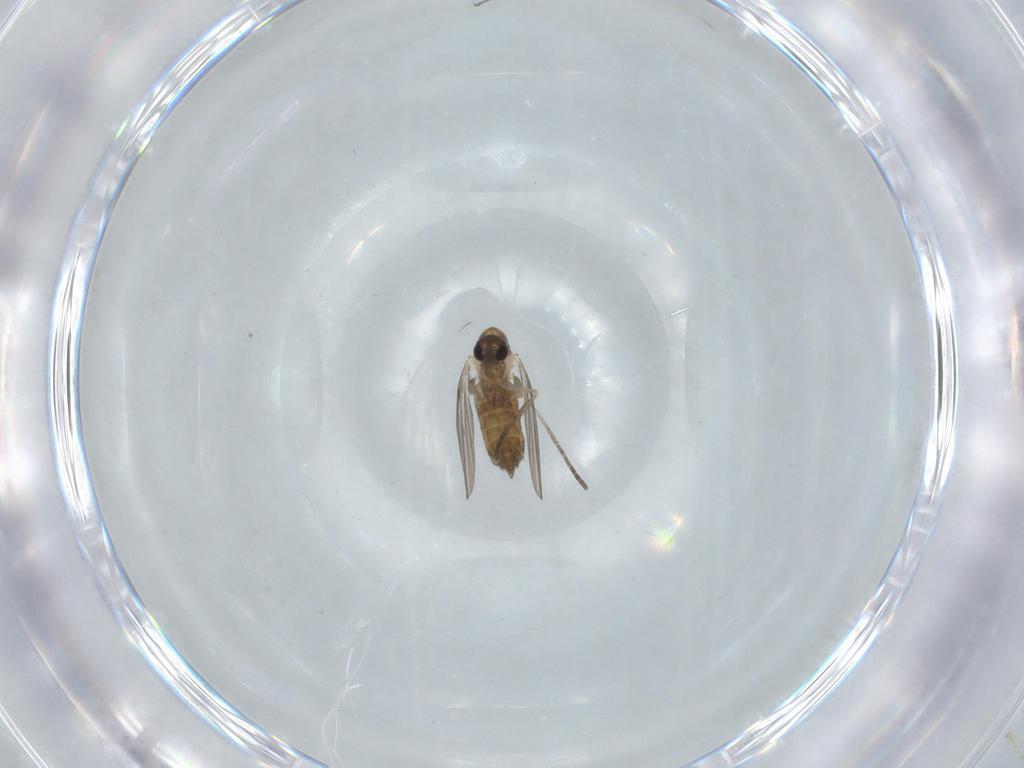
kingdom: Animalia
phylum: Arthropoda
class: Insecta
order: Diptera
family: Psychodidae
